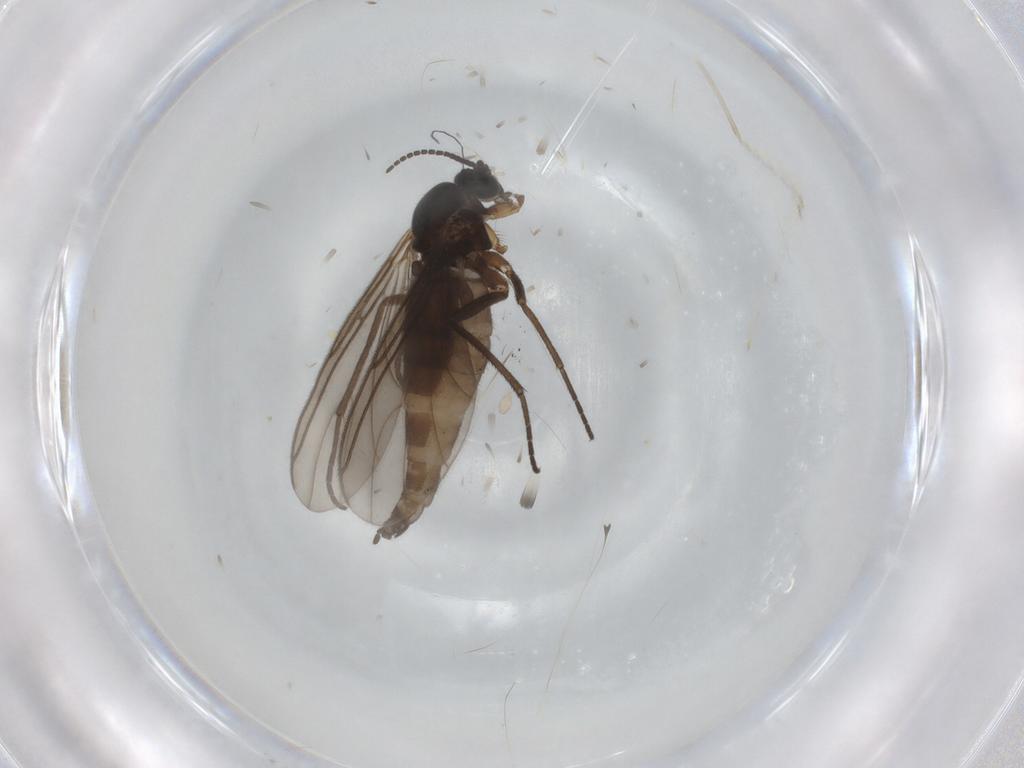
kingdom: Animalia
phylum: Arthropoda
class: Insecta
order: Diptera
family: Sciaridae
